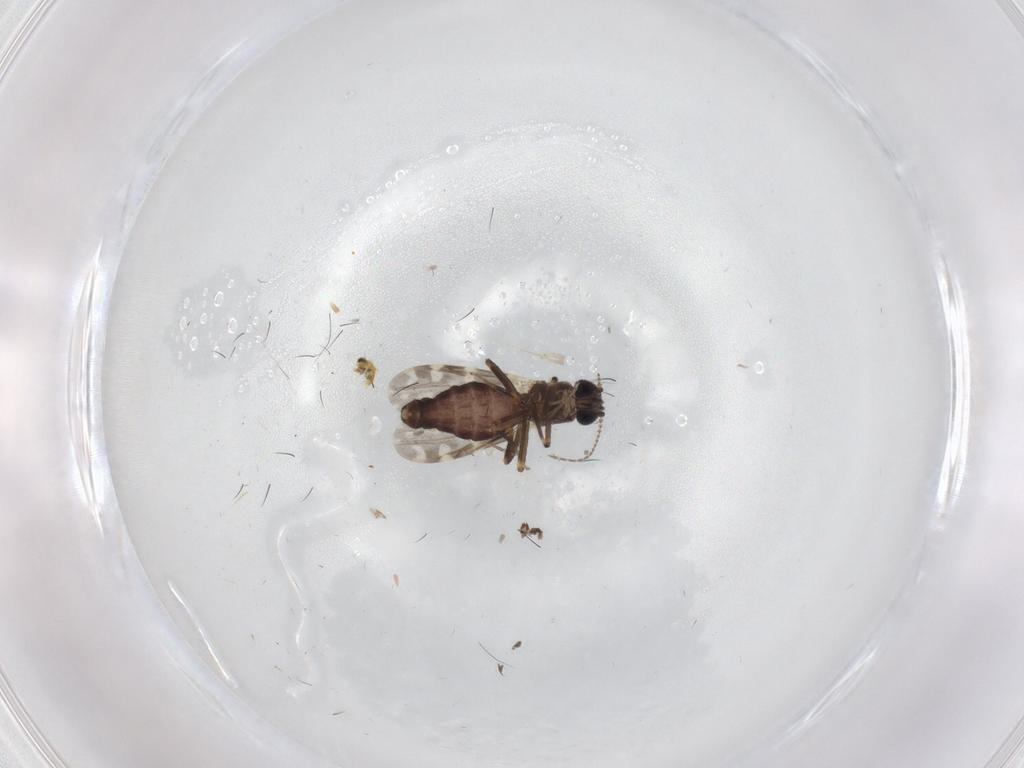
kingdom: Animalia
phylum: Arthropoda
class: Insecta
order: Diptera
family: Ceratopogonidae
